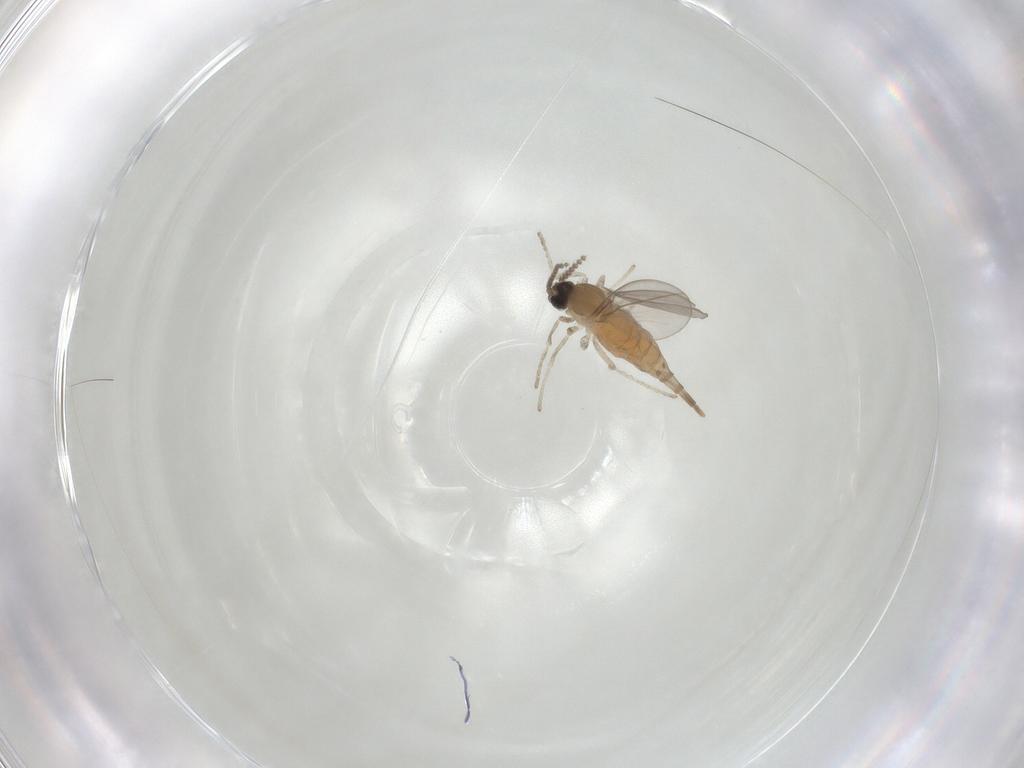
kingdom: Animalia
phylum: Arthropoda
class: Insecta
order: Diptera
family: Cecidomyiidae
